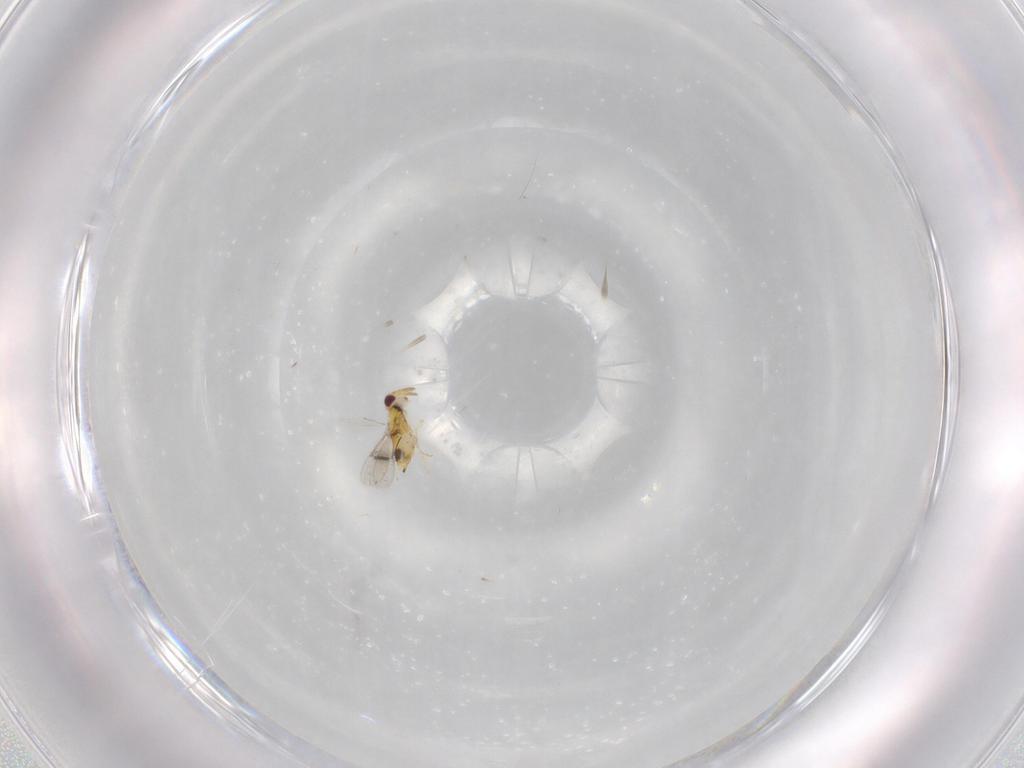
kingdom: Animalia
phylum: Arthropoda
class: Insecta
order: Hymenoptera
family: Aphelinidae
